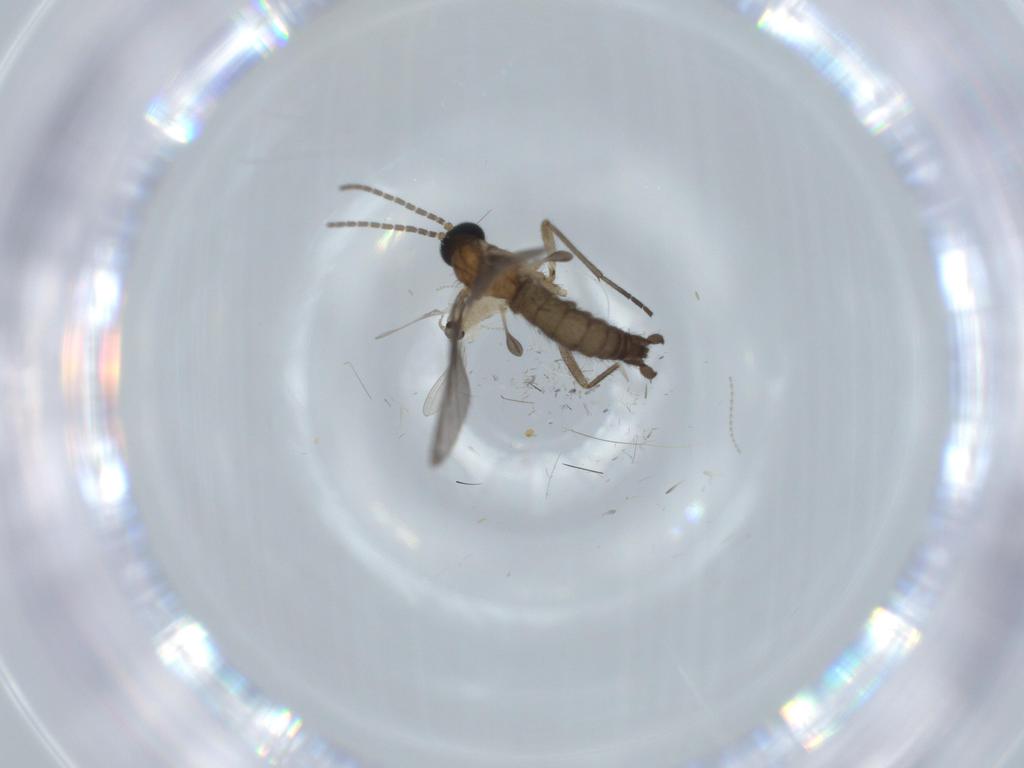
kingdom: Animalia
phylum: Arthropoda
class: Insecta
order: Diptera
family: Sciaridae
